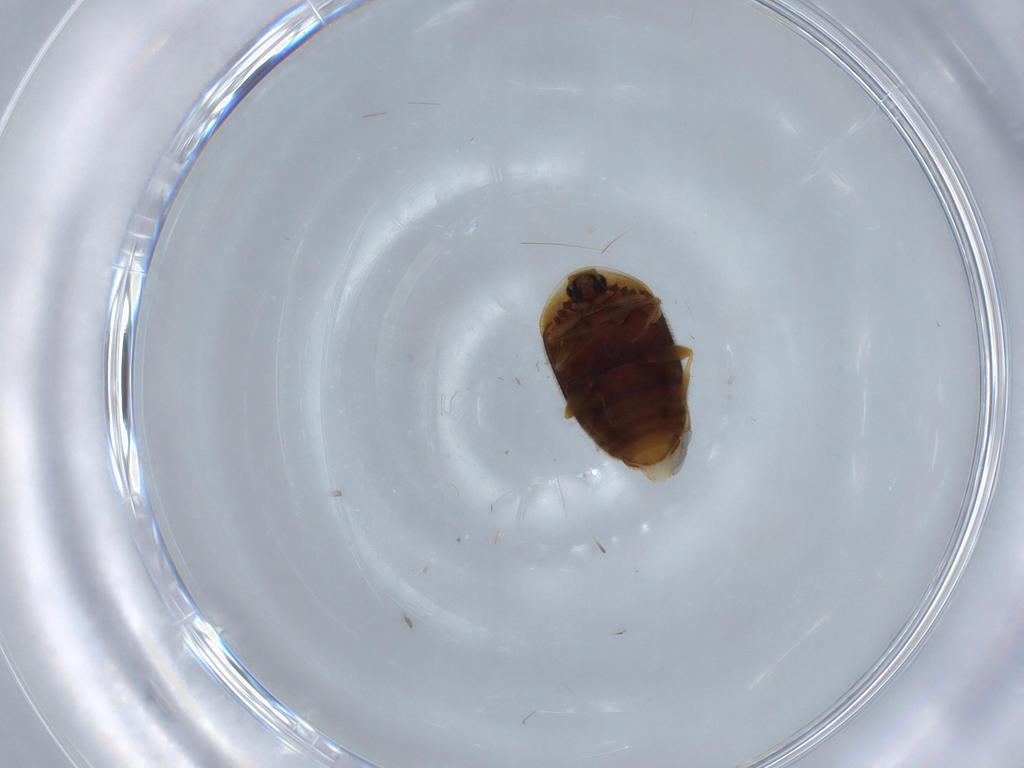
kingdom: Animalia
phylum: Arthropoda
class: Insecta
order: Coleoptera
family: Corylophidae
